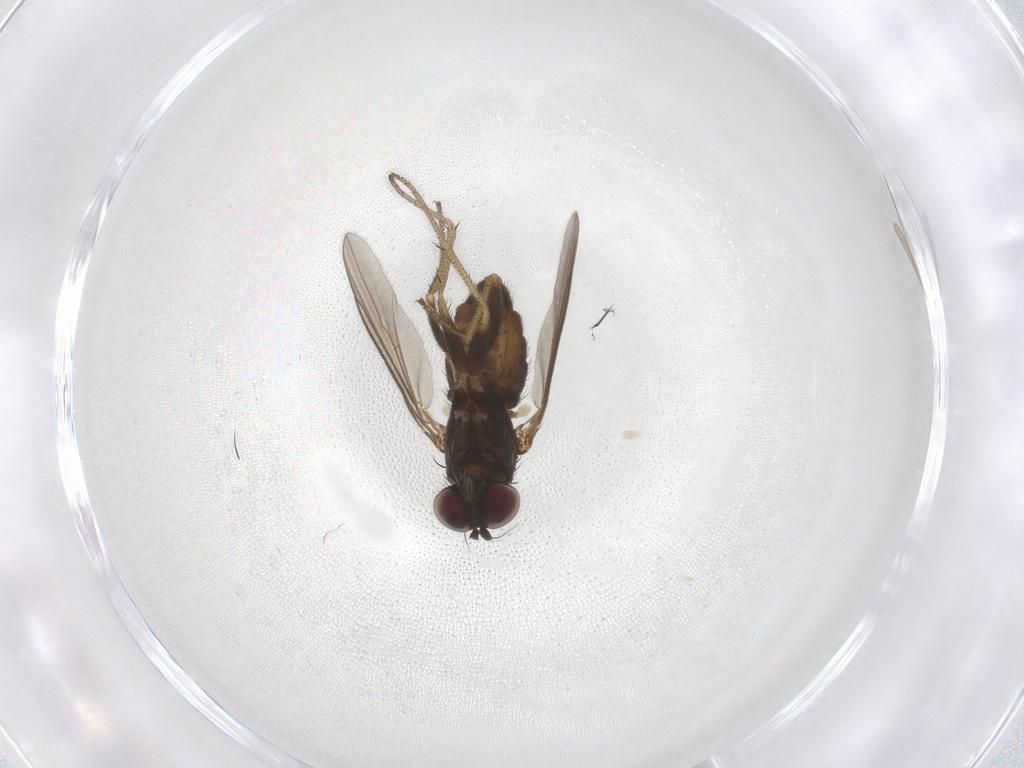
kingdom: Animalia
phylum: Arthropoda
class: Insecta
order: Diptera
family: Dolichopodidae
